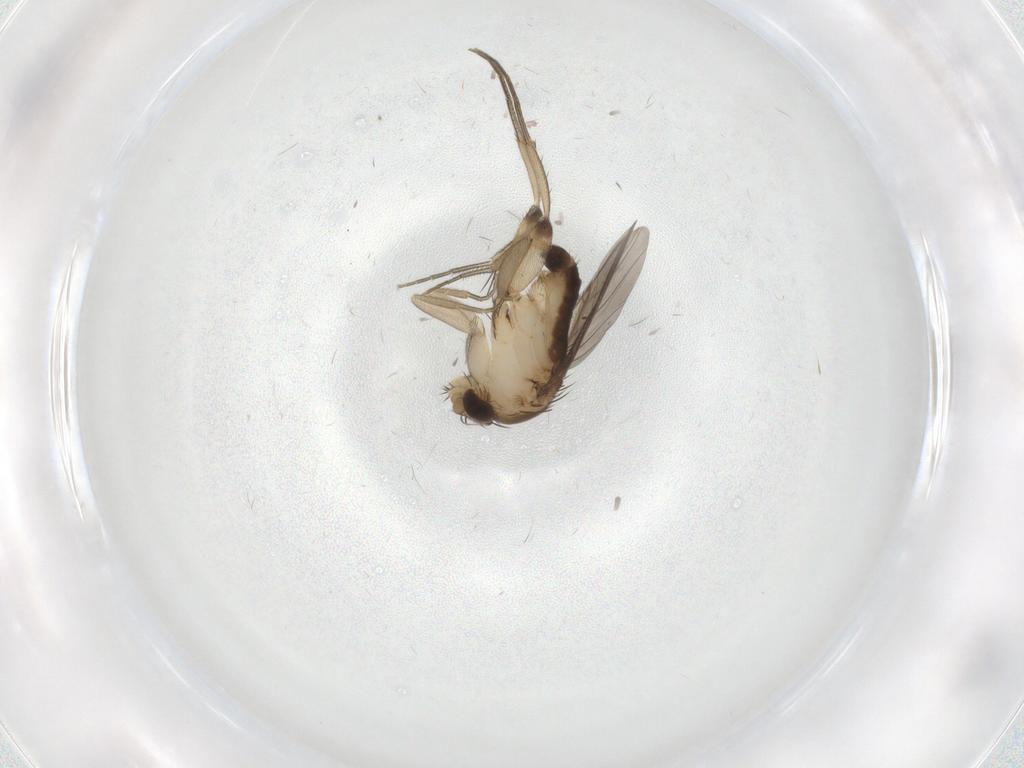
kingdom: Animalia
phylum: Arthropoda
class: Insecta
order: Diptera
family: Phoridae
